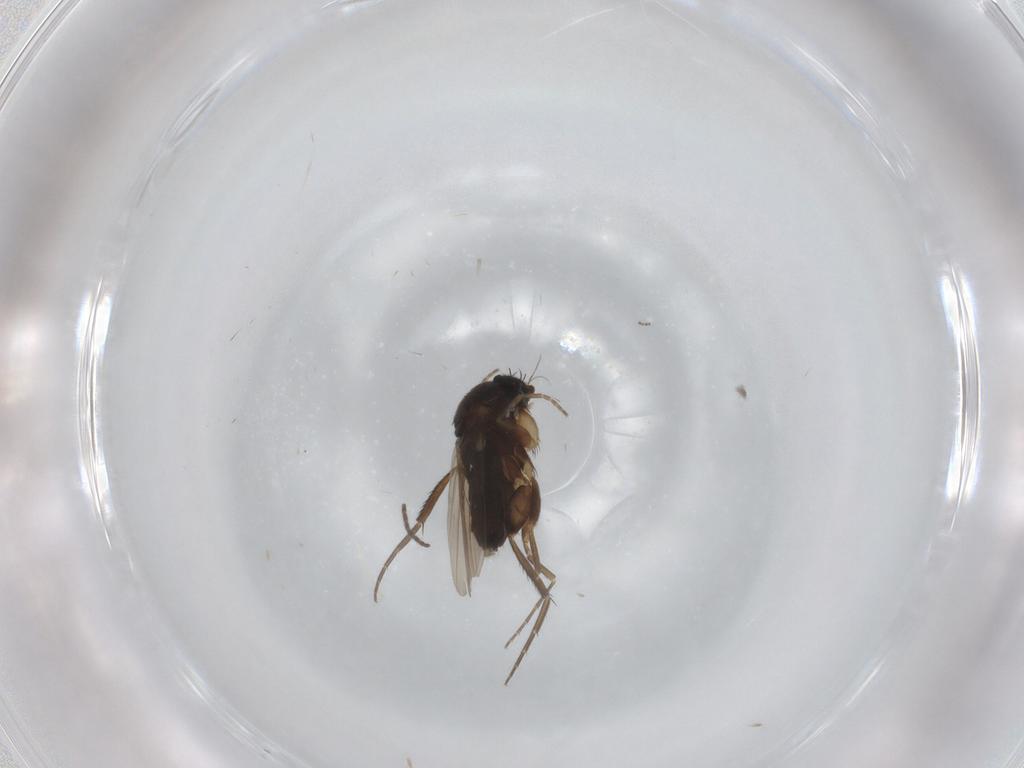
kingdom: Animalia
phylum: Arthropoda
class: Insecta
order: Diptera
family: Phoridae
